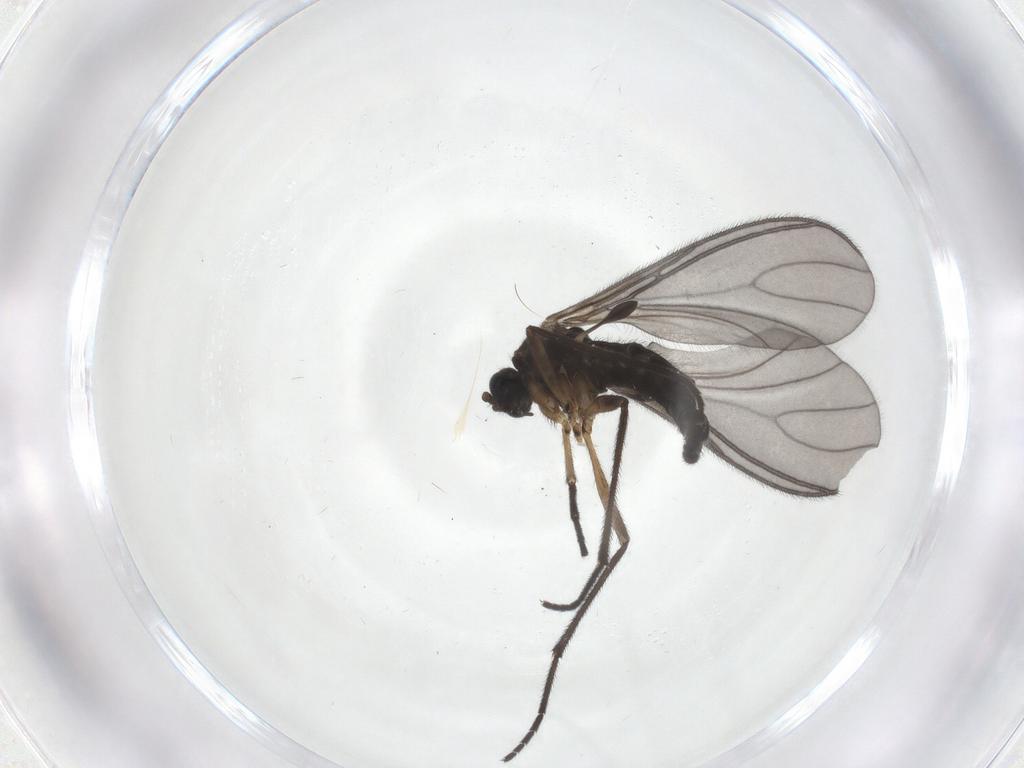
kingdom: Animalia
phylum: Arthropoda
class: Insecta
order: Diptera
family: Sciaridae
